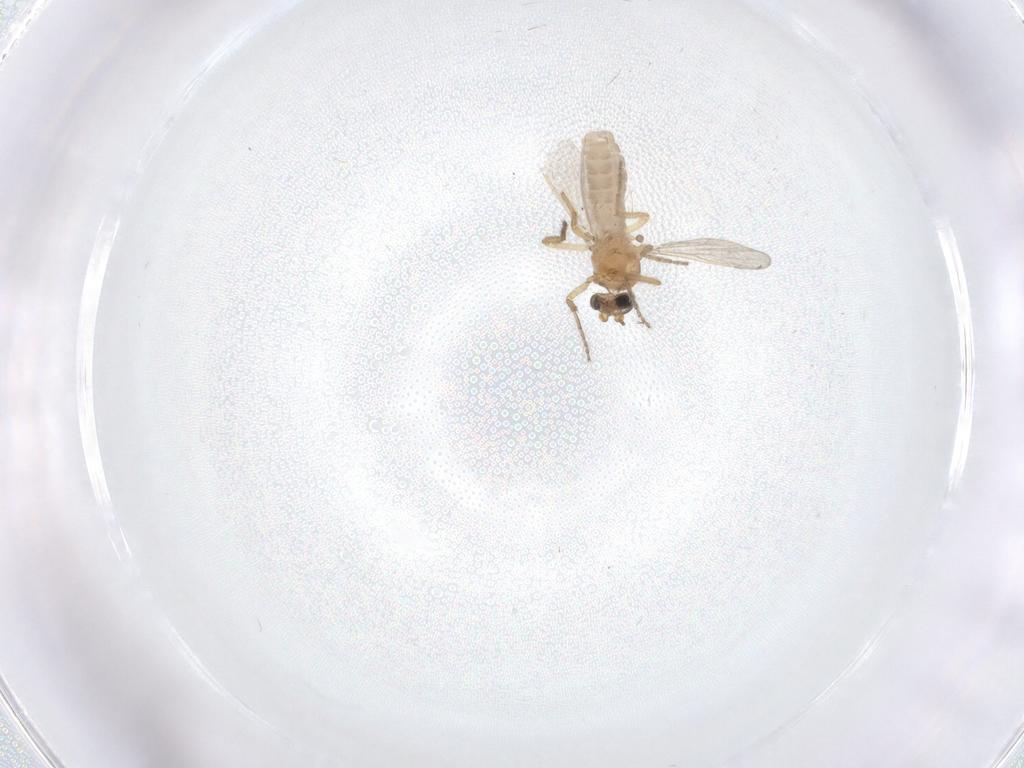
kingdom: Animalia
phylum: Arthropoda
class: Insecta
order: Diptera
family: Ceratopogonidae
